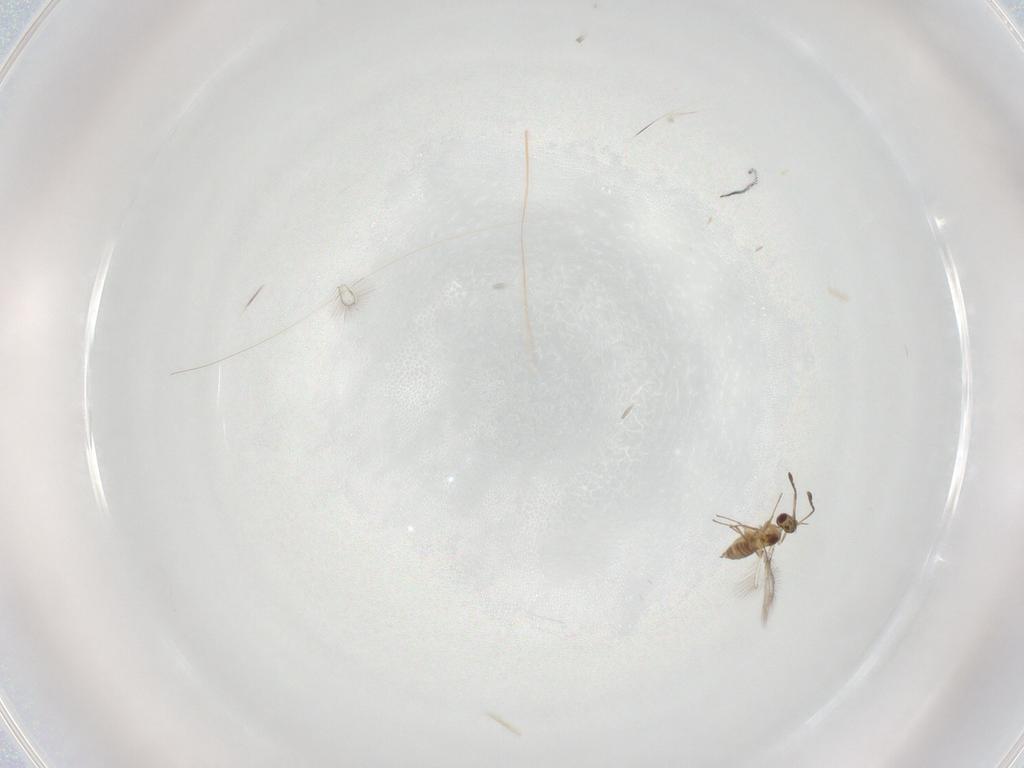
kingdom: Animalia
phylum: Arthropoda
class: Insecta
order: Hymenoptera
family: Mymaridae
